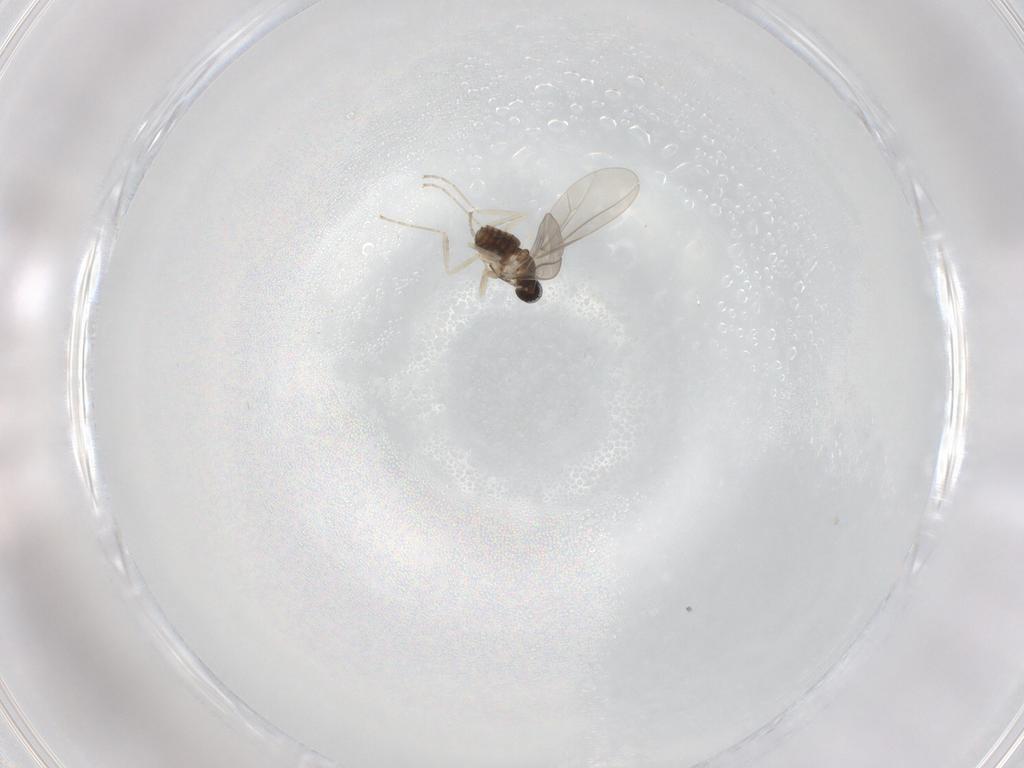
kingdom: Animalia
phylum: Arthropoda
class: Insecta
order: Diptera
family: Cecidomyiidae
